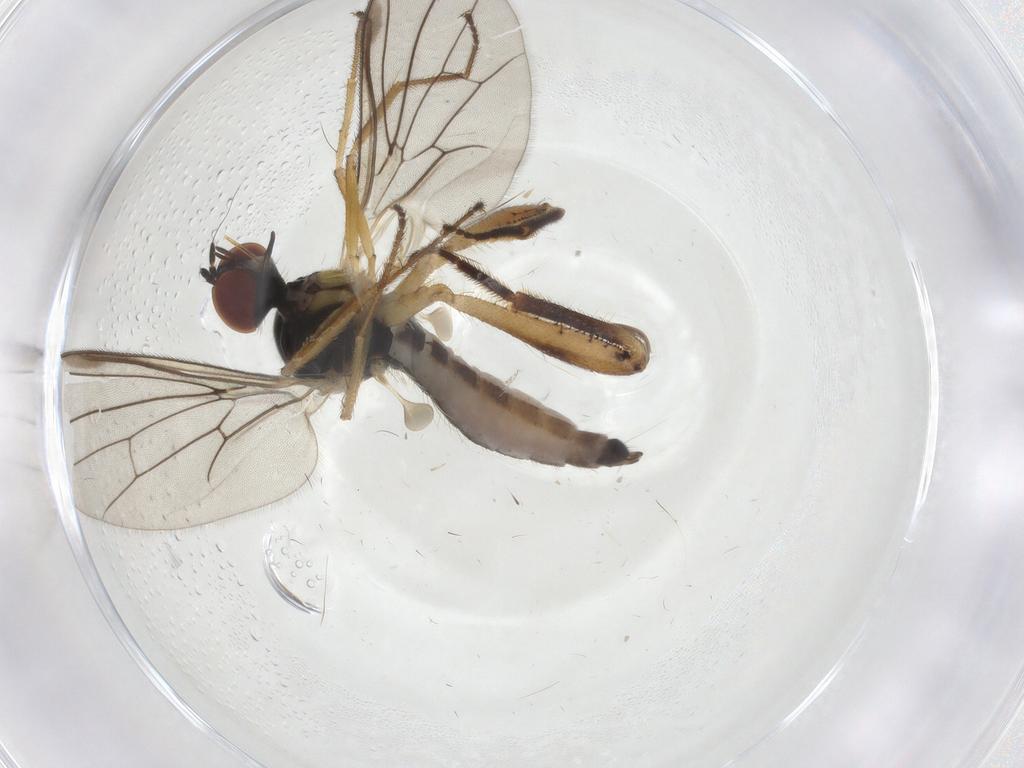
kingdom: Animalia
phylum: Arthropoda
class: Insecta
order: Diptera
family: Hybotidae
